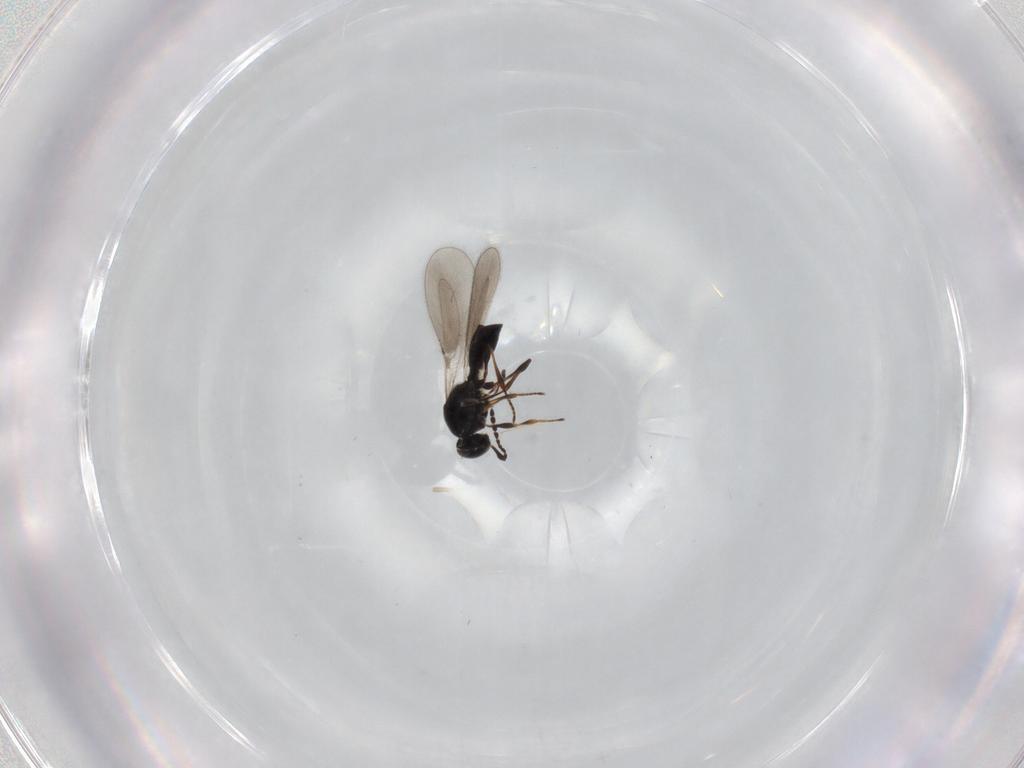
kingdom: Animalia
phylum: Arthropoda
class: Insecta
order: Hymenoptera
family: Platygastridae
